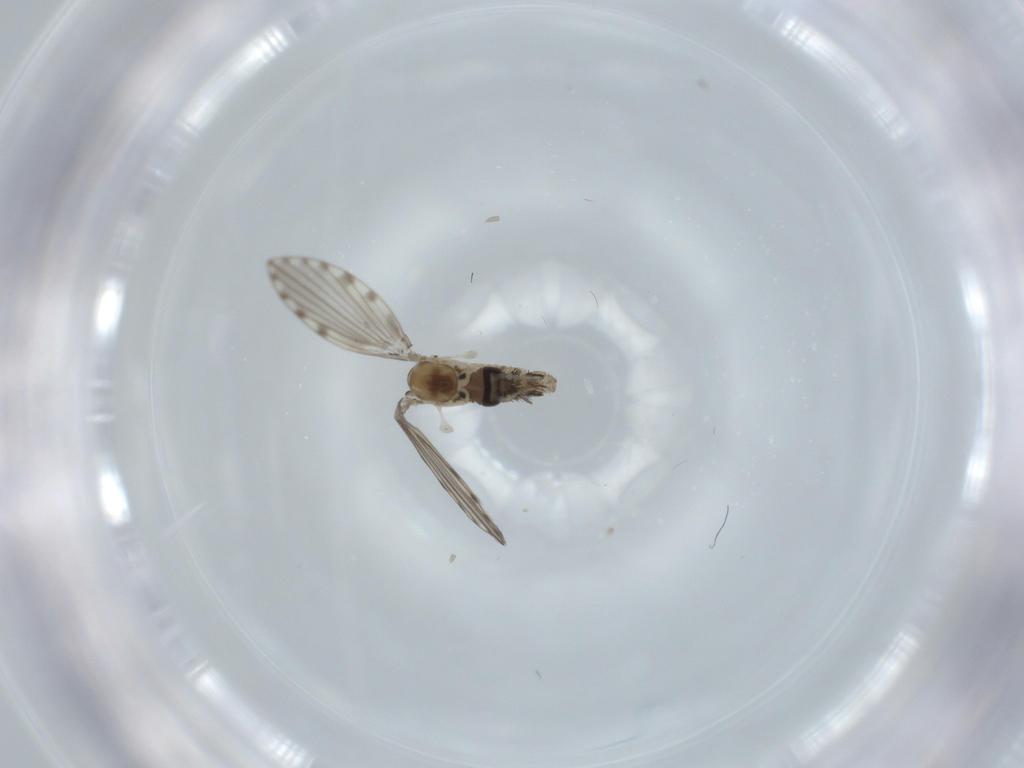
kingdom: Animalia
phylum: Arthropoda
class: Insecta
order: Diptera
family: Psychodidae
